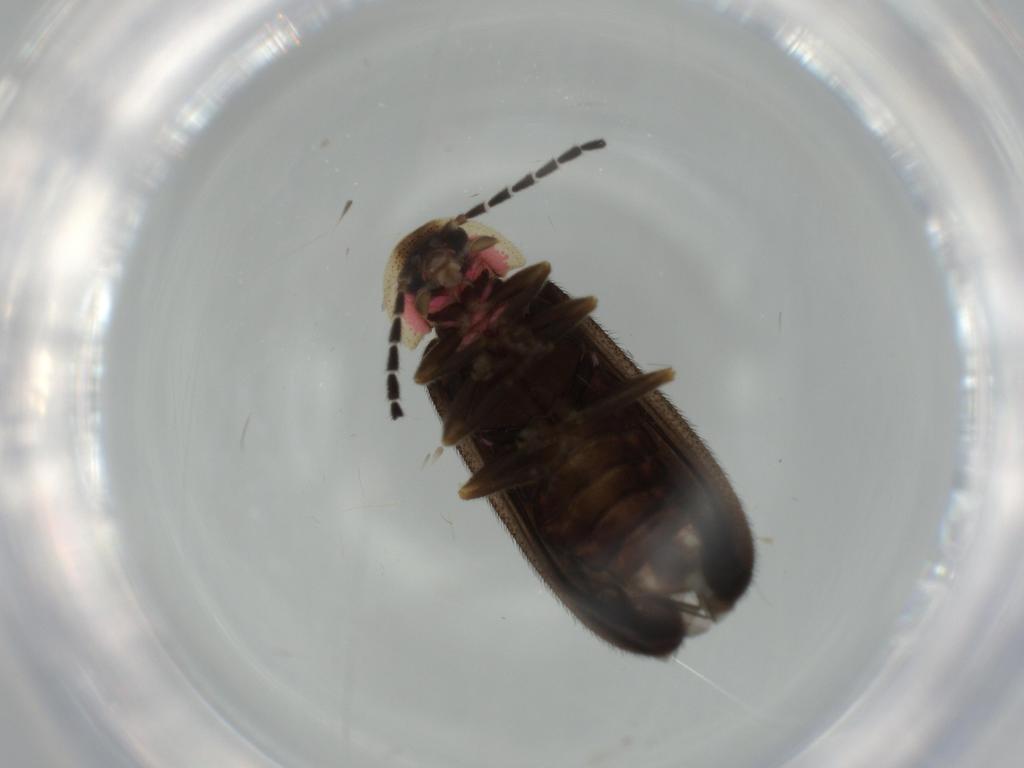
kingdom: Animalia
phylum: Arthropoda
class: Insecta
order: Coleoptera
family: Lampyridae
